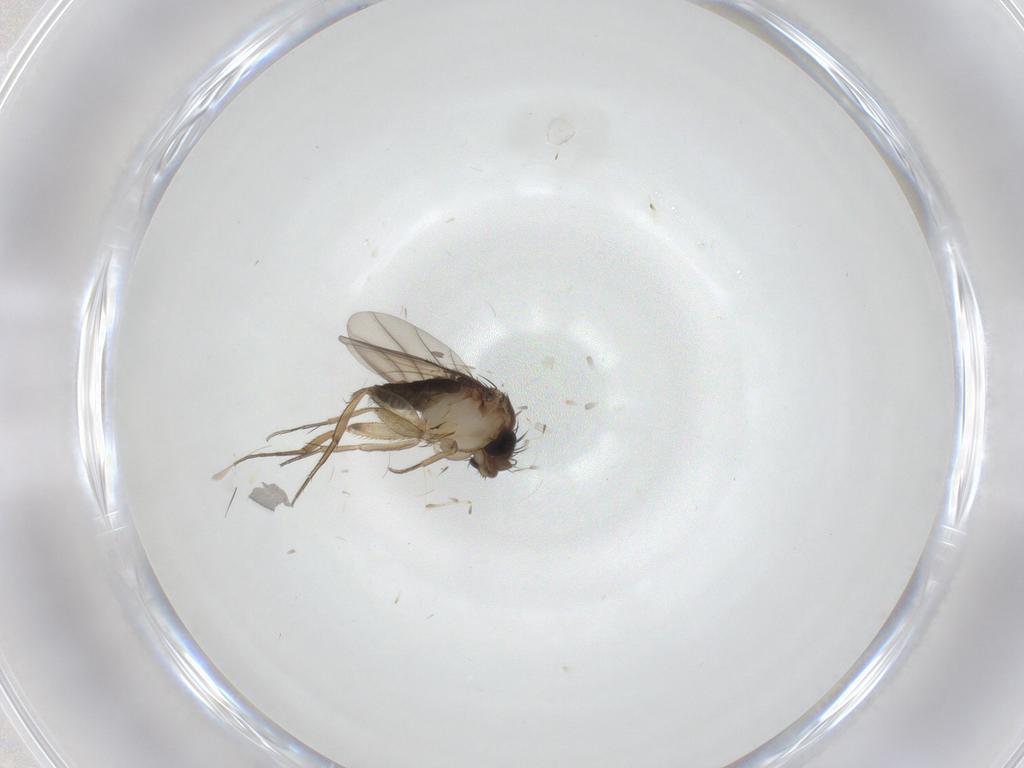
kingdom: Animalia
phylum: Arthropoda
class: Insecta
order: Diptera
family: Phoridae
